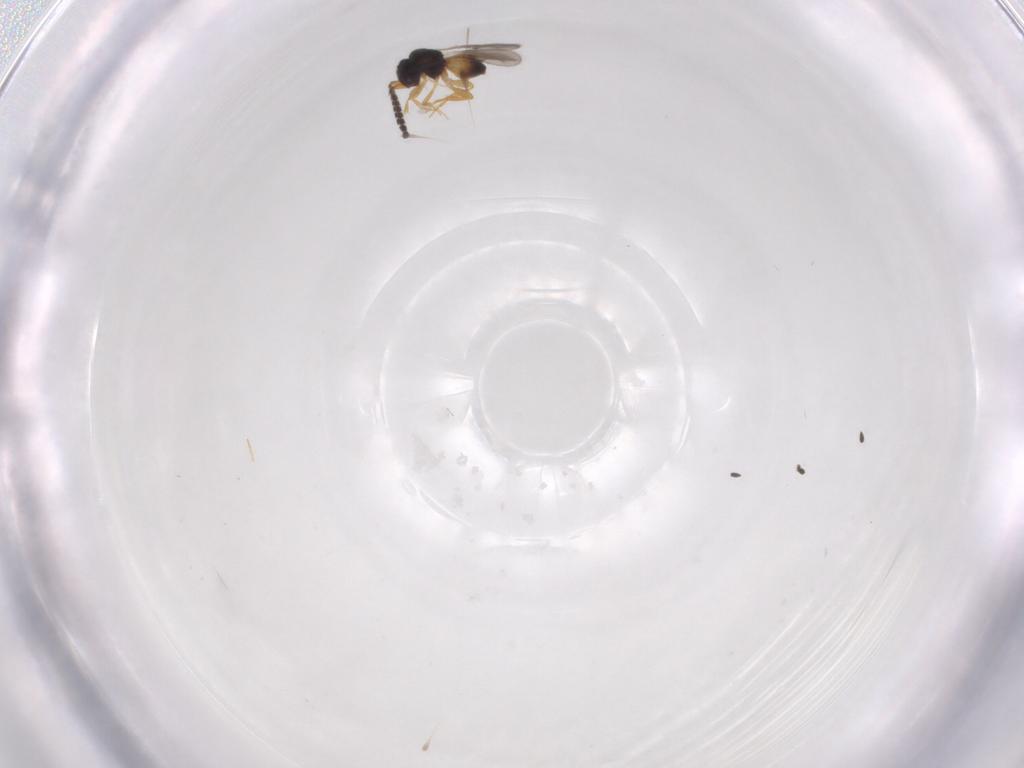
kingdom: Animalia
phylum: Arthropoda
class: Insecta
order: Hymenoptera
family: Ceraphronidae
